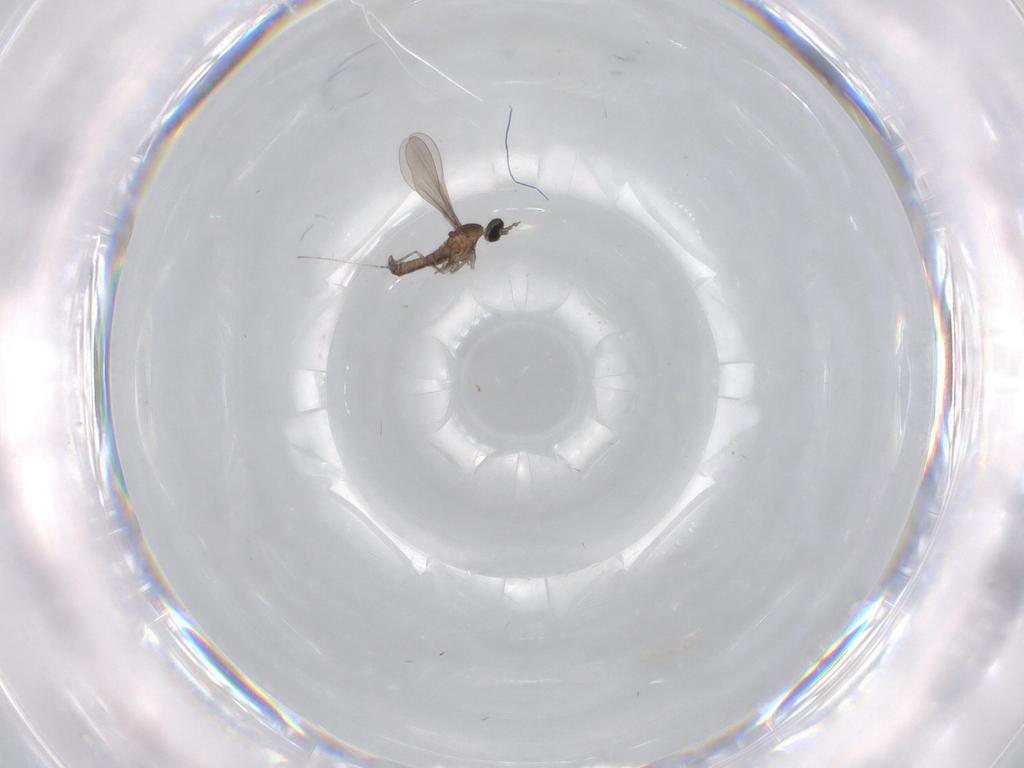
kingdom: Animalia
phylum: Arthropoda
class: Insecta
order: Diptera
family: Cecidomyiidae
